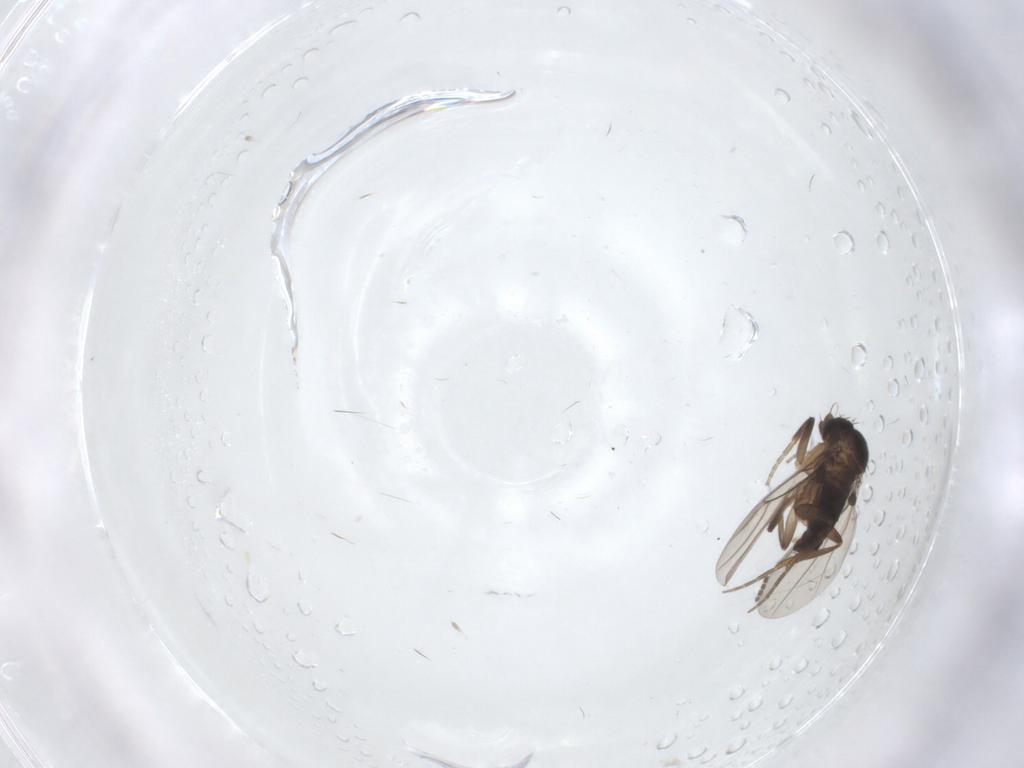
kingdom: Animalia
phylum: Arthropoda
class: Insecta
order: Diptera
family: Phoridae
